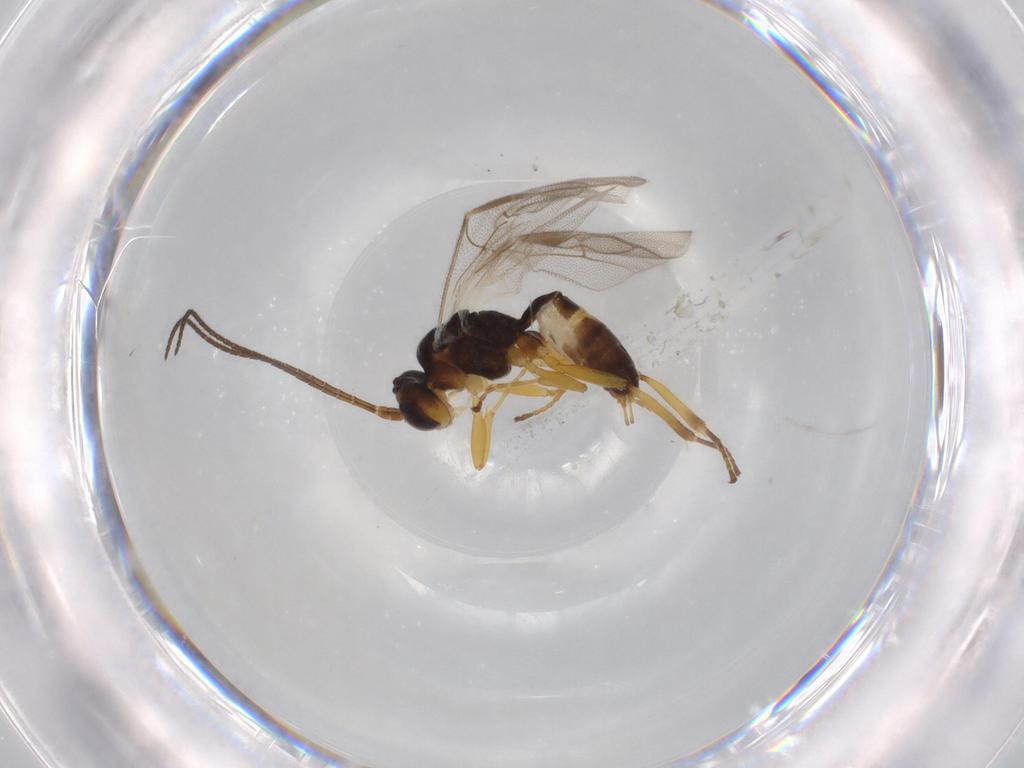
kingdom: Animalia
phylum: Arthropoda
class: Insecta
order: Hymenoptera
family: Ichneumonidae
